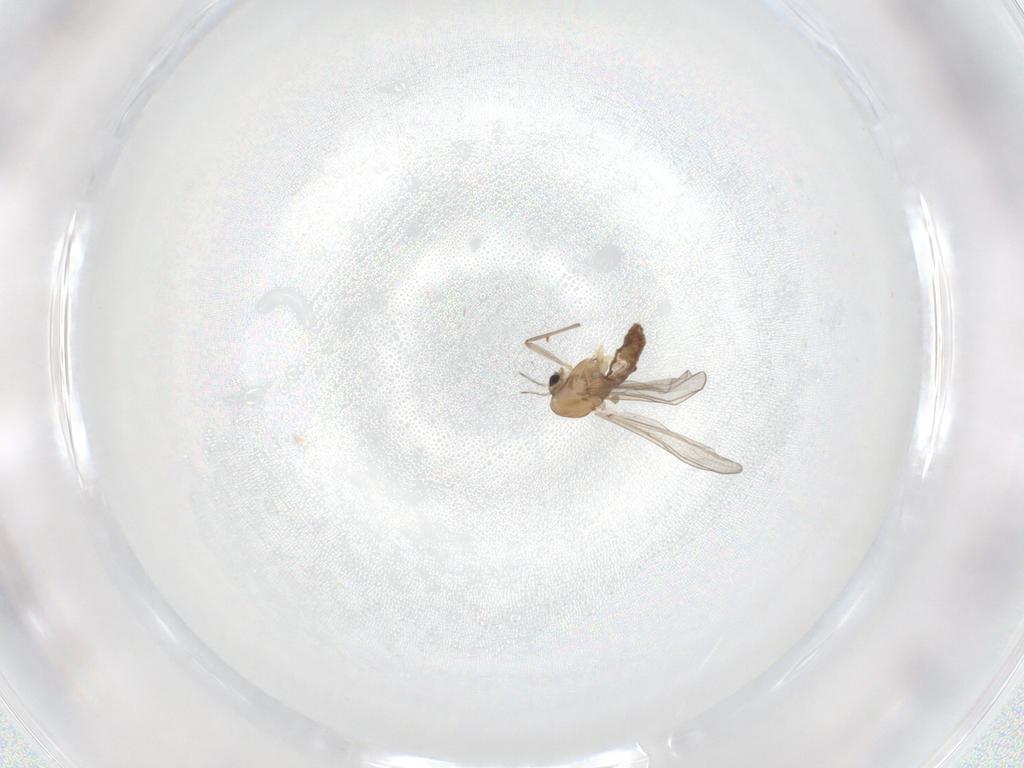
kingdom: Animalia
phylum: Arthropoda
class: Insecta
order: Diptera
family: Chironomidae
